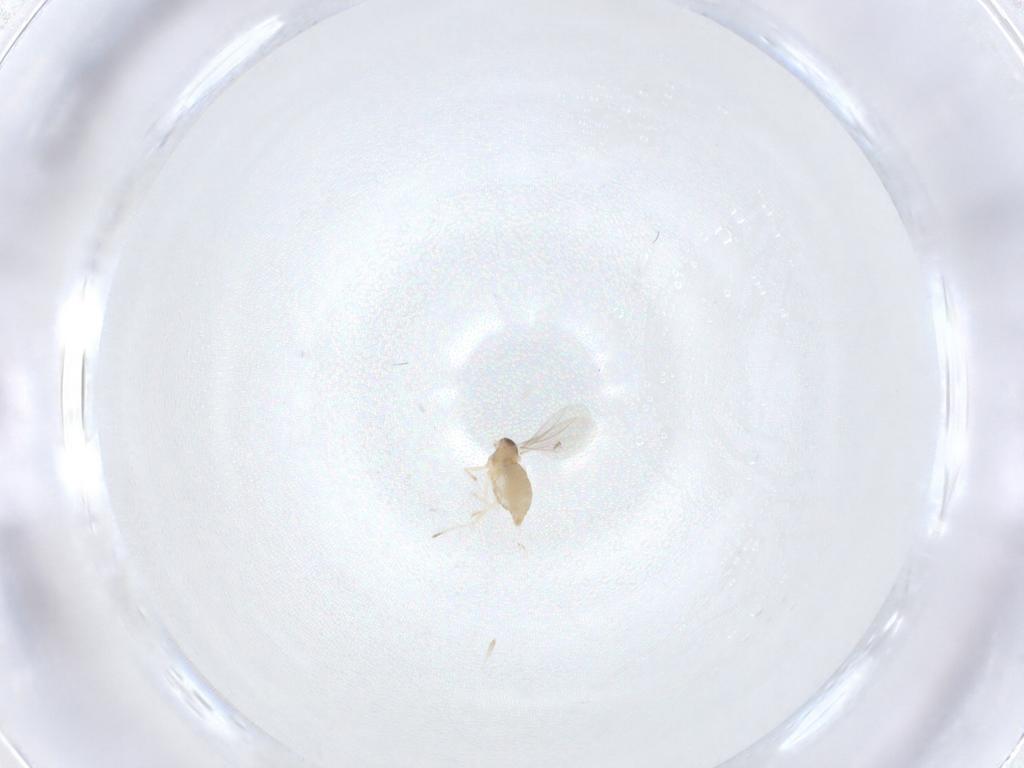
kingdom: Animalia
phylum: Arthropoda
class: Insecta
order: Diptera
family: Cecidomyiidae
